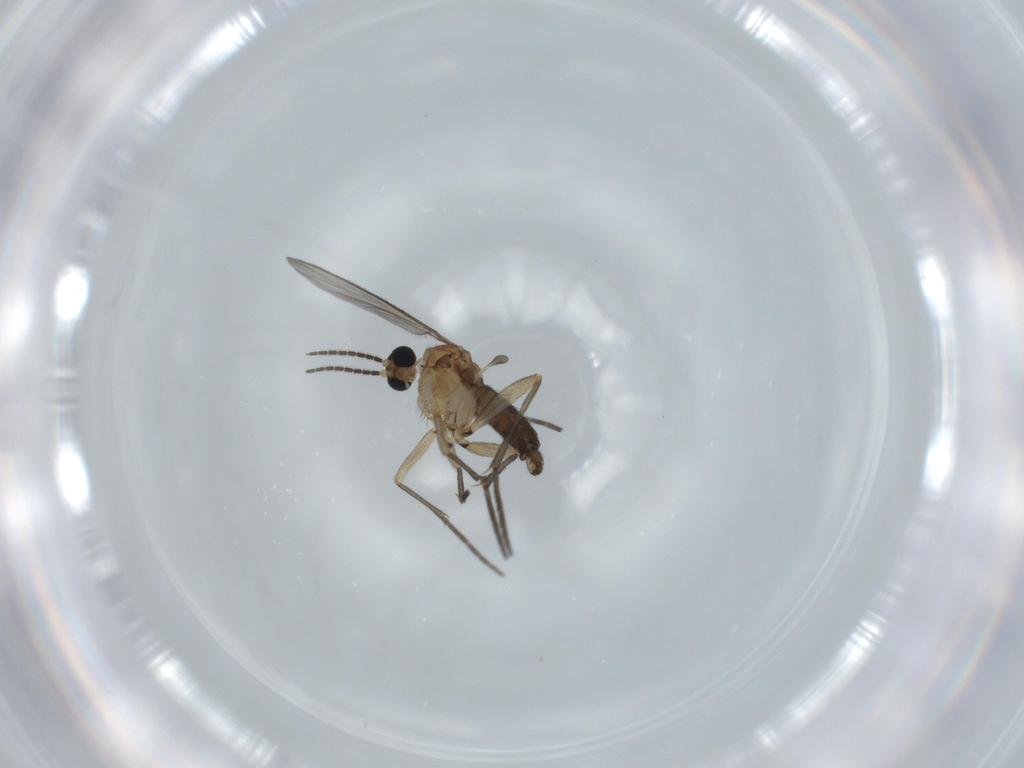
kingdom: Animalia
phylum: Arthropoda
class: Insecta
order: Diptera
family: Sciaridae
